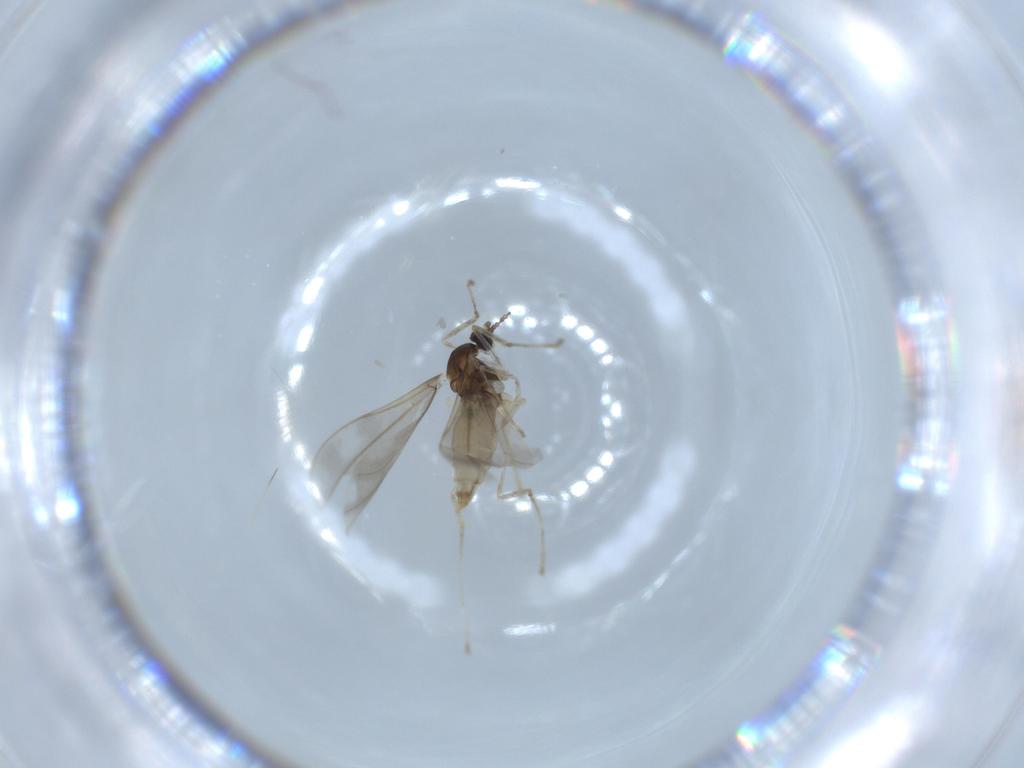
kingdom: Animalia
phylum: Arthropoda
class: Insecta
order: Diptera
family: Cecidomyiidae
